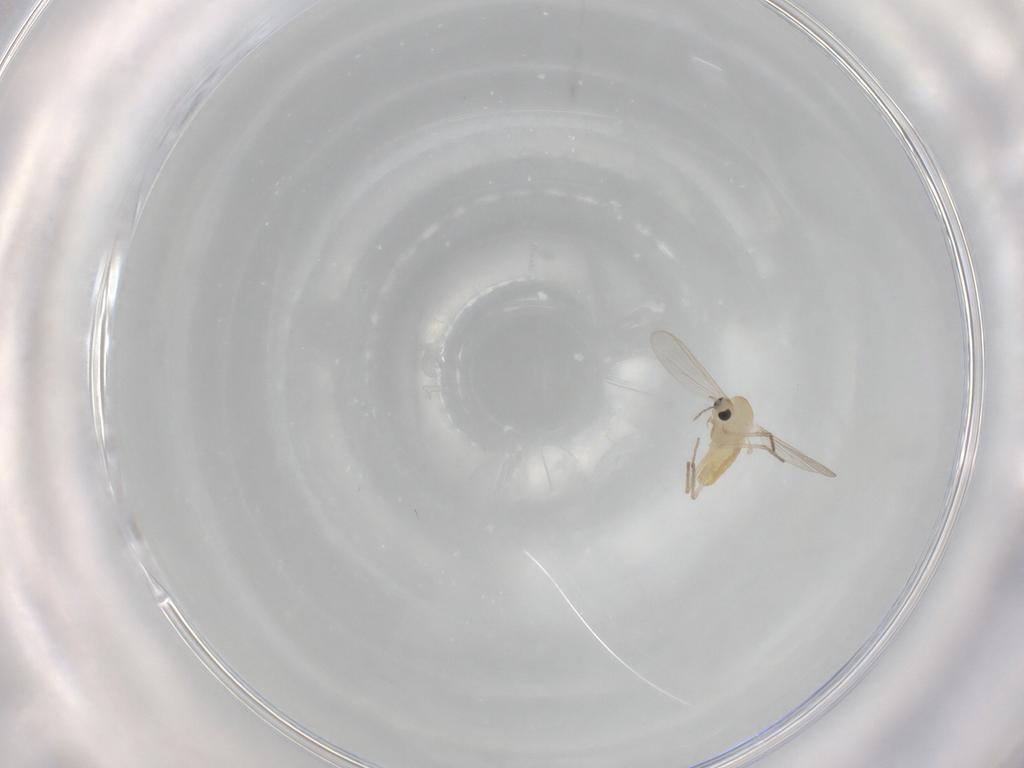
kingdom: Animalia
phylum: Arthropoda
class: Insecta
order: Diptera
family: Chironomidae
